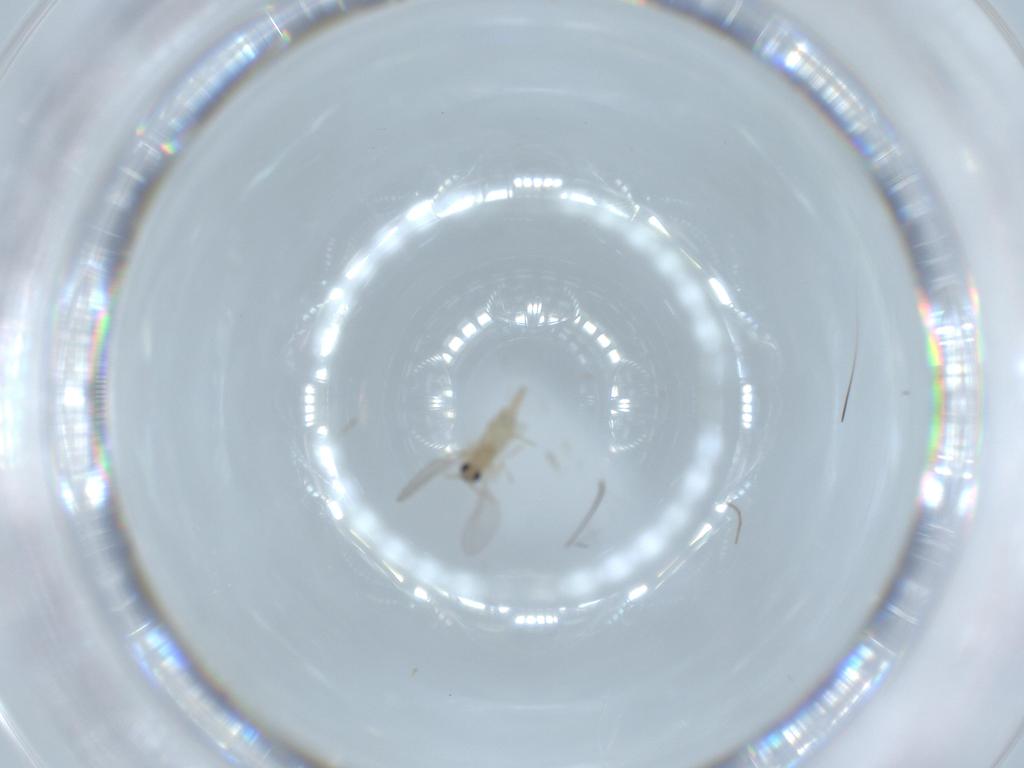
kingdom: Animalia
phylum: Arthropoda
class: Insecta
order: Diptera
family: Cecidomyiidae
